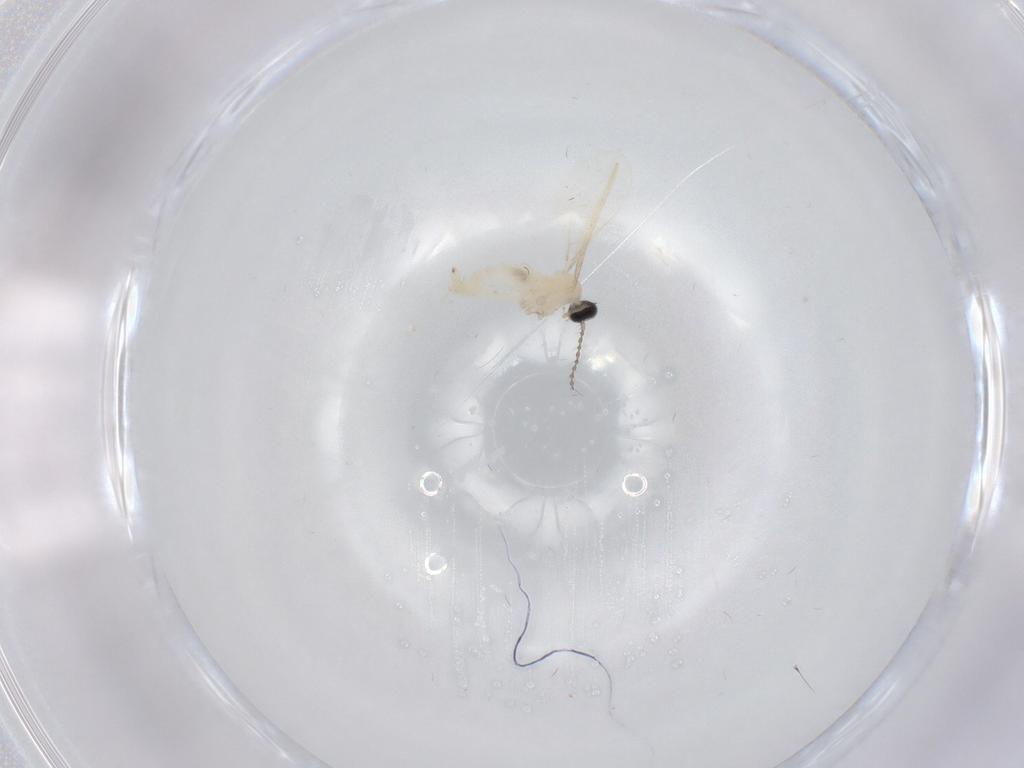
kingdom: Animalia
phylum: Arthropoda
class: Insecta
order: Diptera
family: Cecidomyiidae
